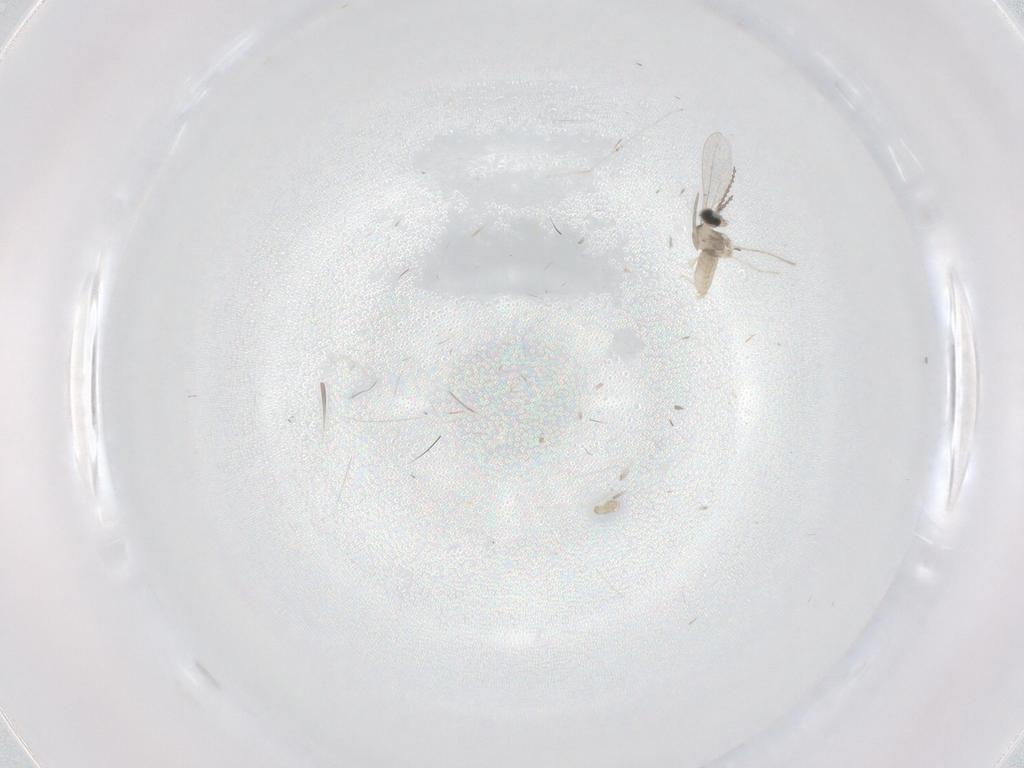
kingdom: Animalia
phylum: Arthropoda
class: Insecta
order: Diptera
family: Cecidomyiidae
